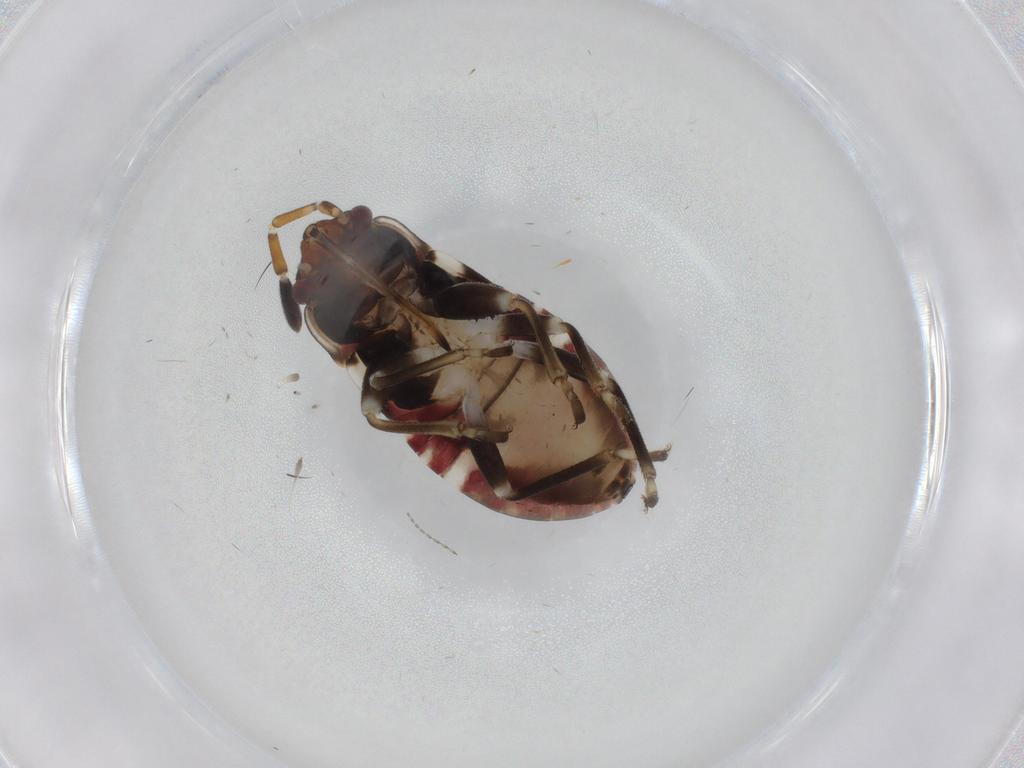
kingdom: Animalia
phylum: Arthropoda
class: Insecta
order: Hemiptera
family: Rhyparochromidae
